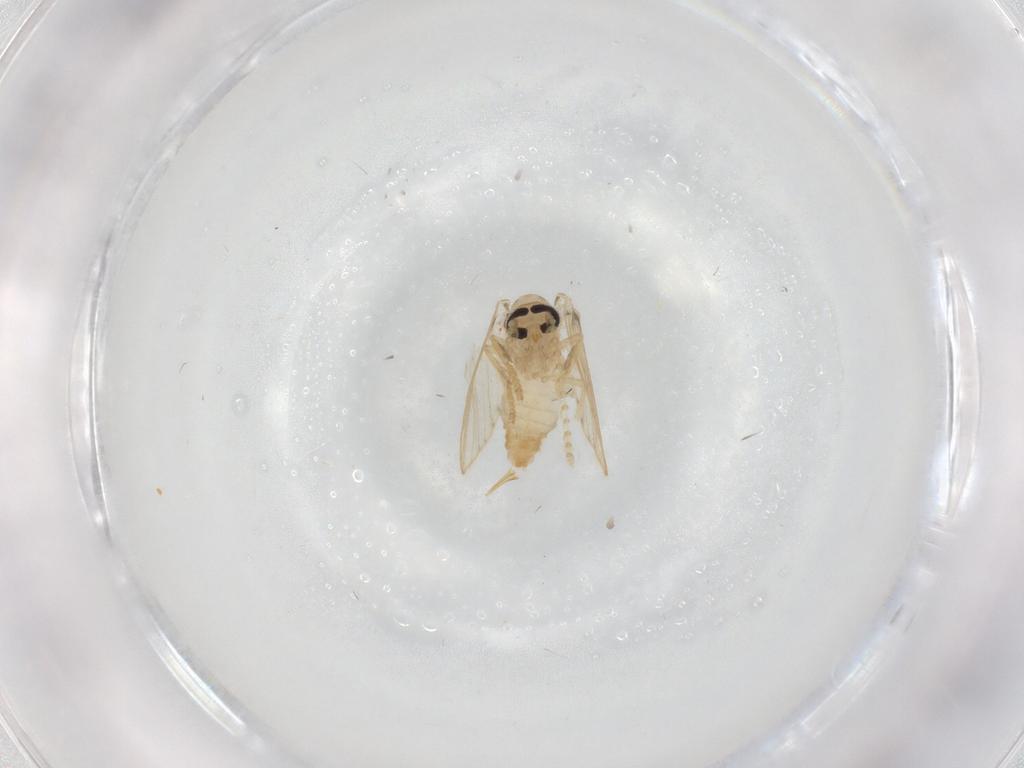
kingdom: Animalia
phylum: Arthropoda
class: Insecta
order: Diptera
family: Psychodidae
